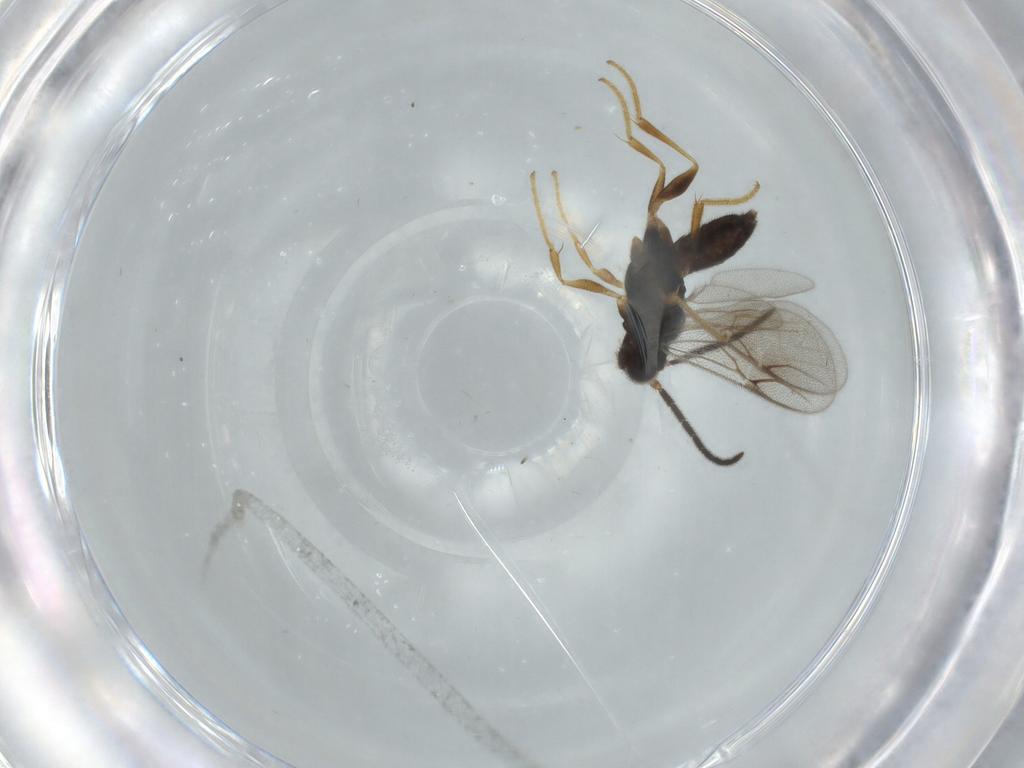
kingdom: Animalia
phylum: Arthropoda
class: Insecta
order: Hymenoptera
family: Dryinidae
